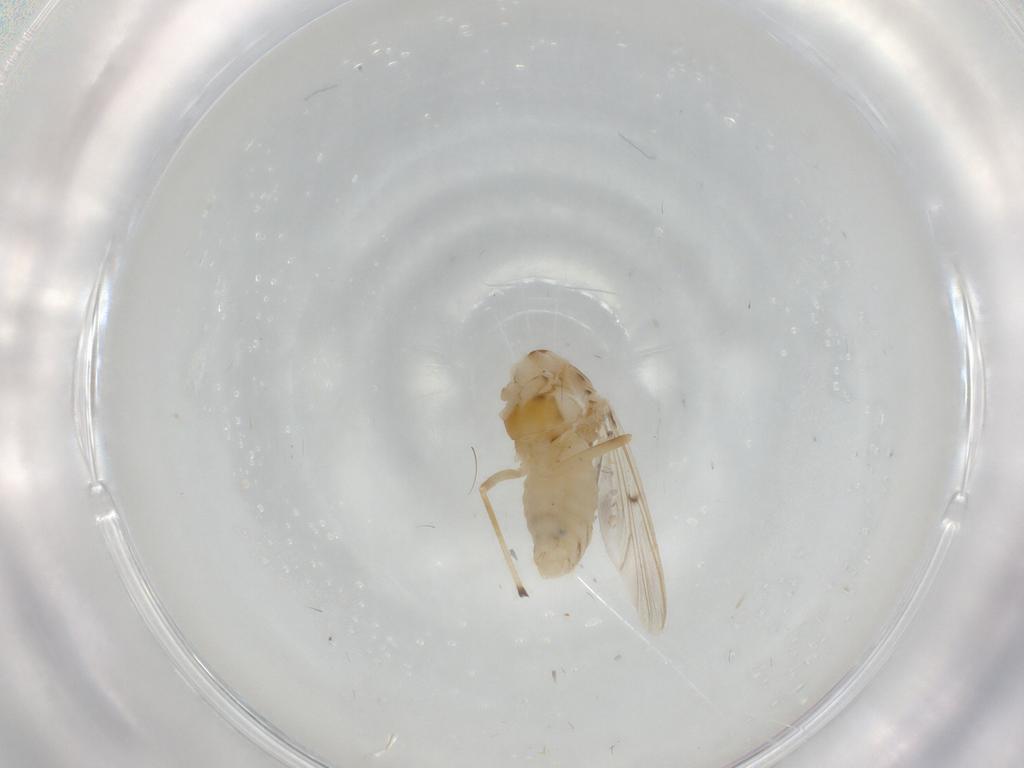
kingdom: Animalia
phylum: Arthropoda
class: Insecta
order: Diptera
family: Chironomidae
